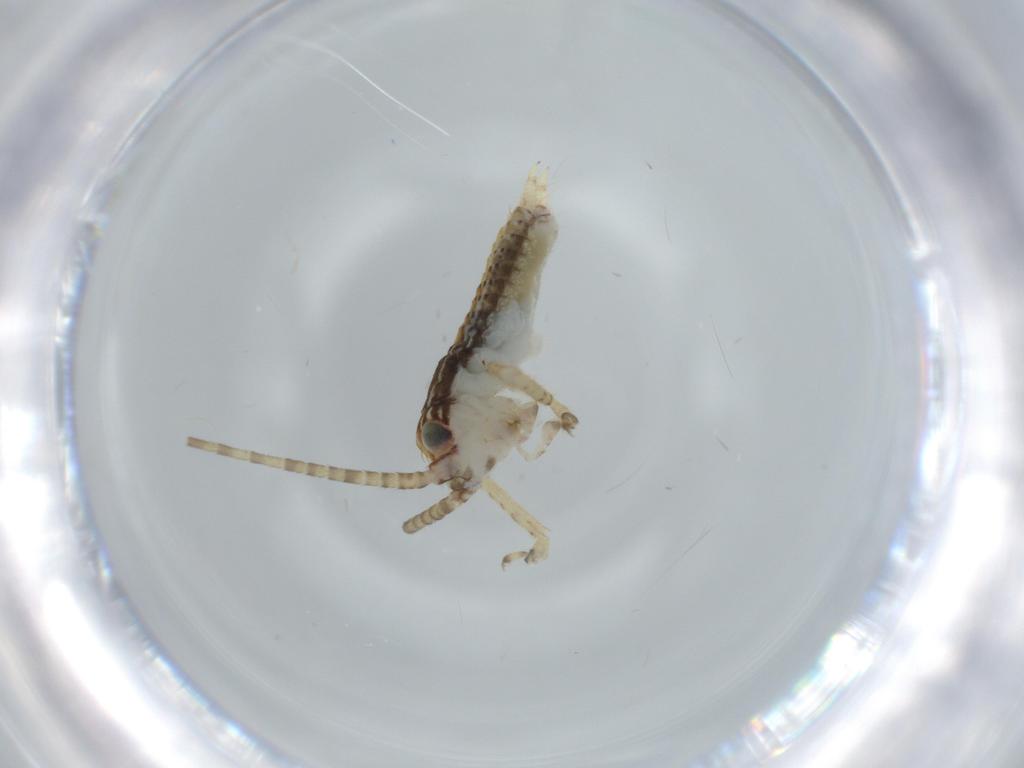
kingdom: Animalia
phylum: Arthropoda
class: Insecta
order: Orthoptera
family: Gryllidae
